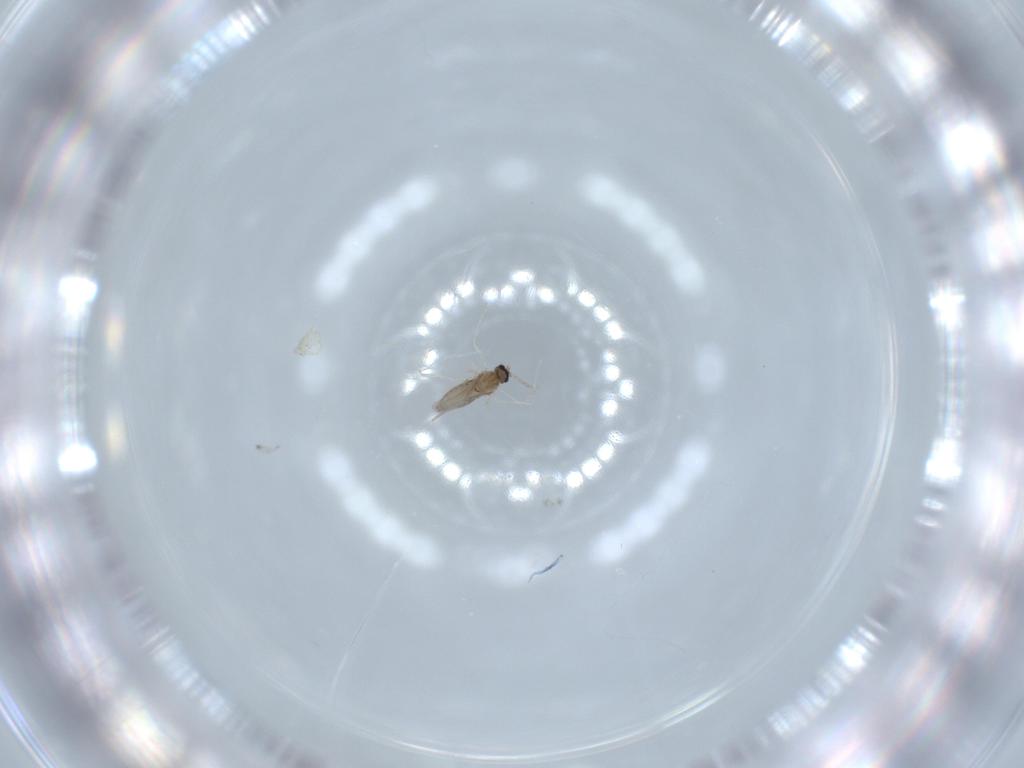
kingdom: Animalia
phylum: Arthropoda
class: Insecta
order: Diptera
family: Cecidomyiidae
